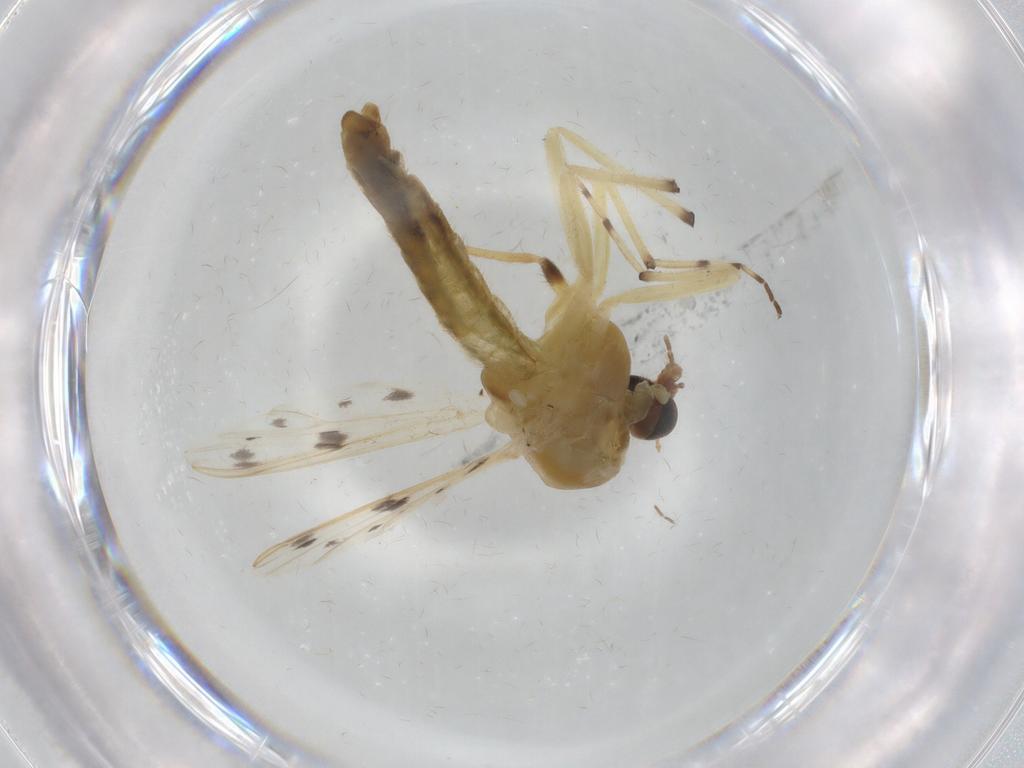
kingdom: Animalia
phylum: Arthropoda
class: Insecta
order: Diptera
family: Chironomidae
